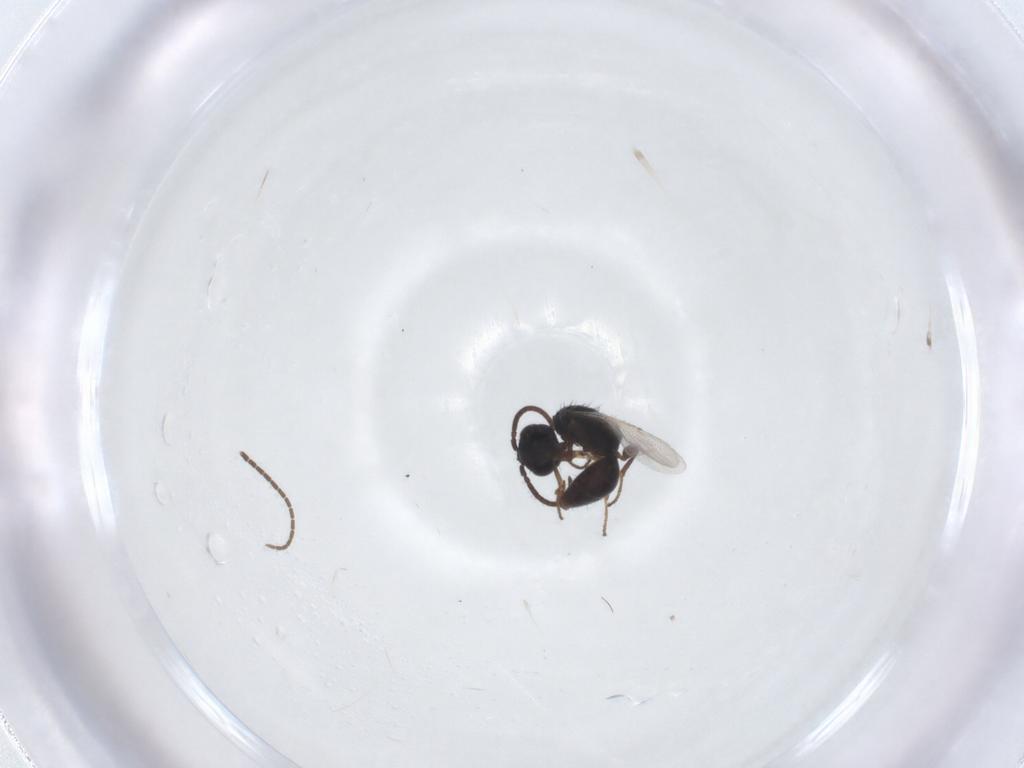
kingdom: Animalia
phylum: Arthropoda
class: Insecta
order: Hymenoptera
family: Bethylidae
